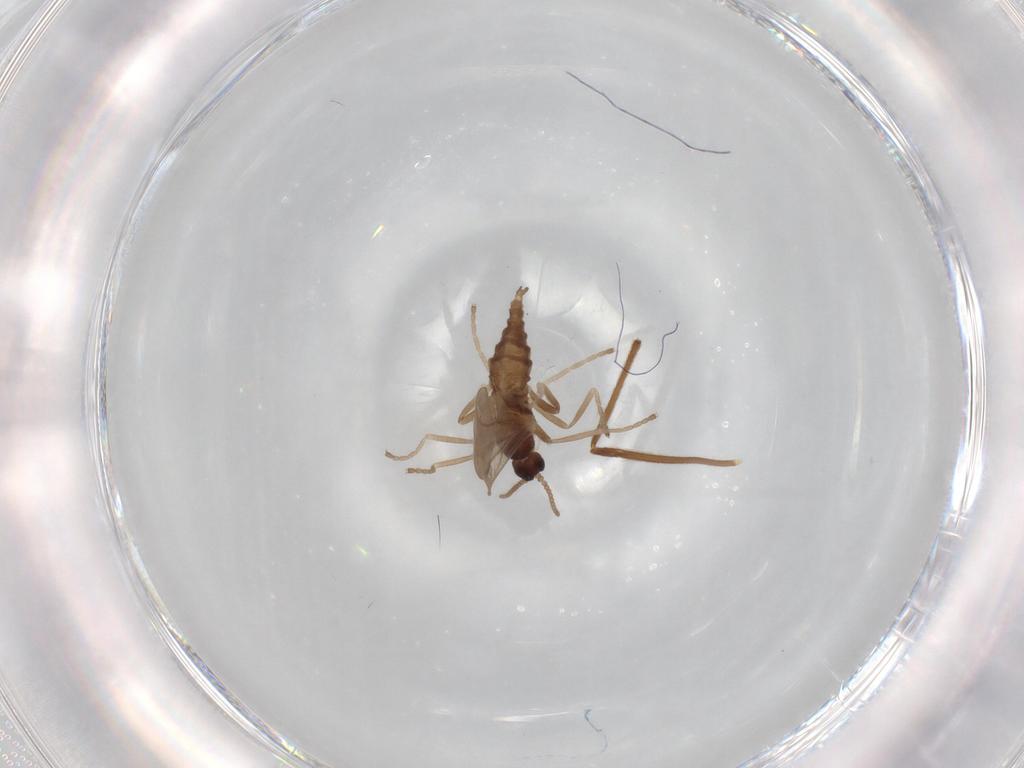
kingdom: Animalia
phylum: Arthropoda
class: Insecta
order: Diptera
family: Cecidomyiidae
